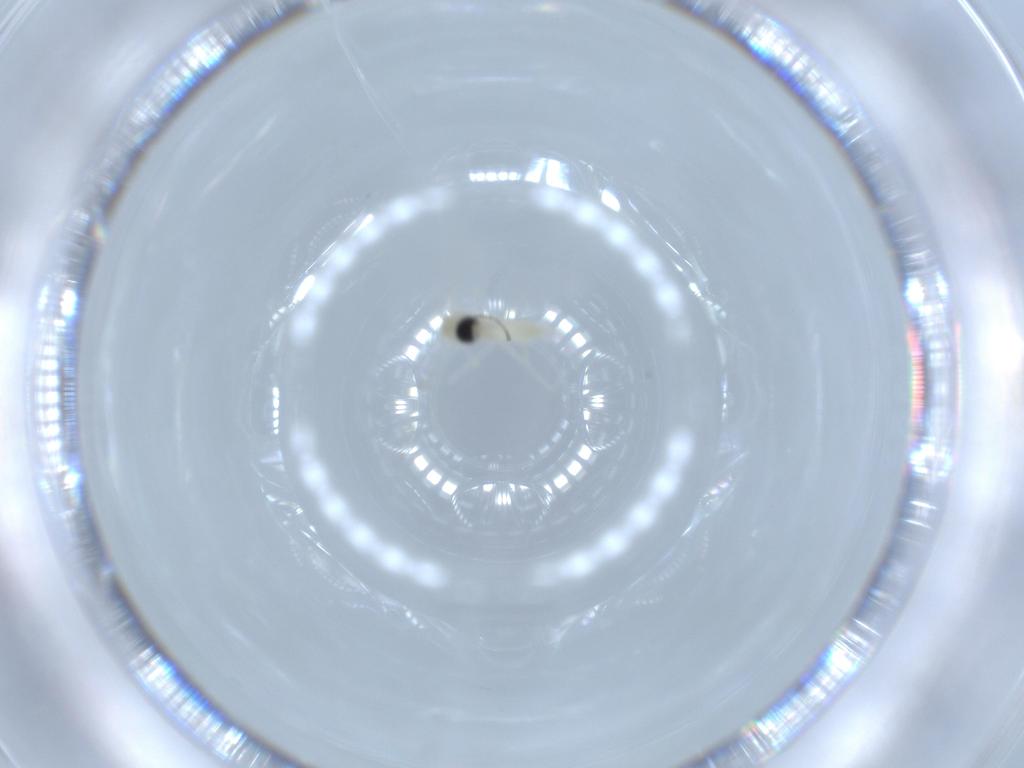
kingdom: Animalia
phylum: Arthropoda
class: Insecta
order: Diptera
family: Cecidomyiidae
